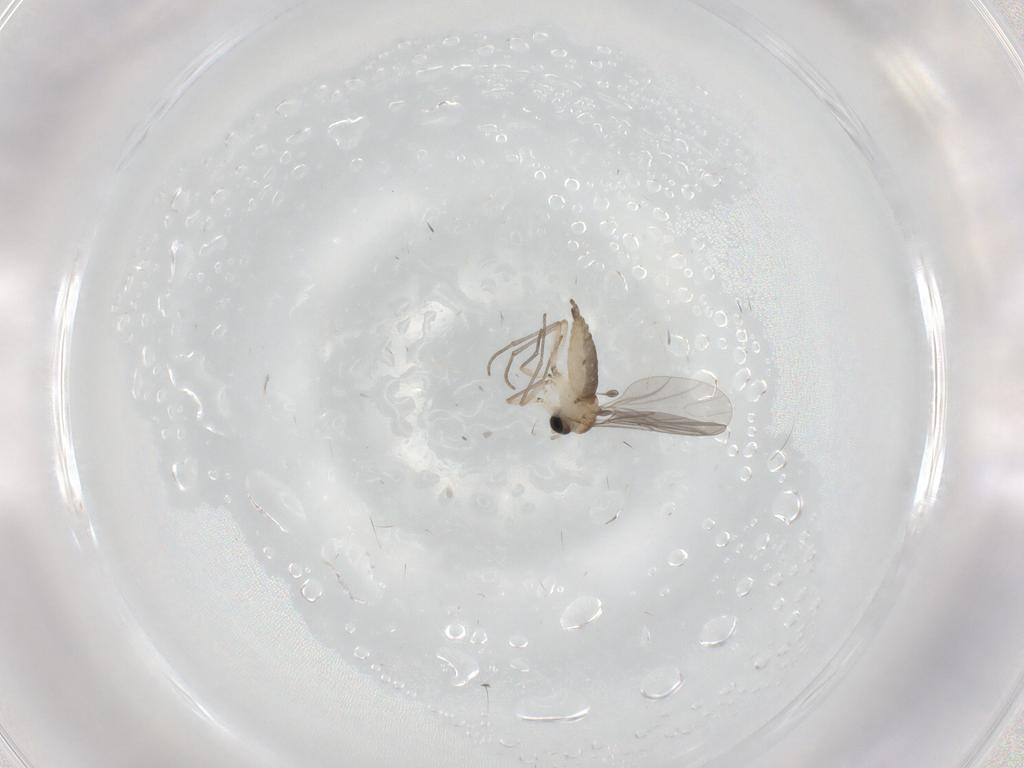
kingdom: Animalia
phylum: Arthropoda
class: Insecta
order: Diptera
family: Sciaridae
